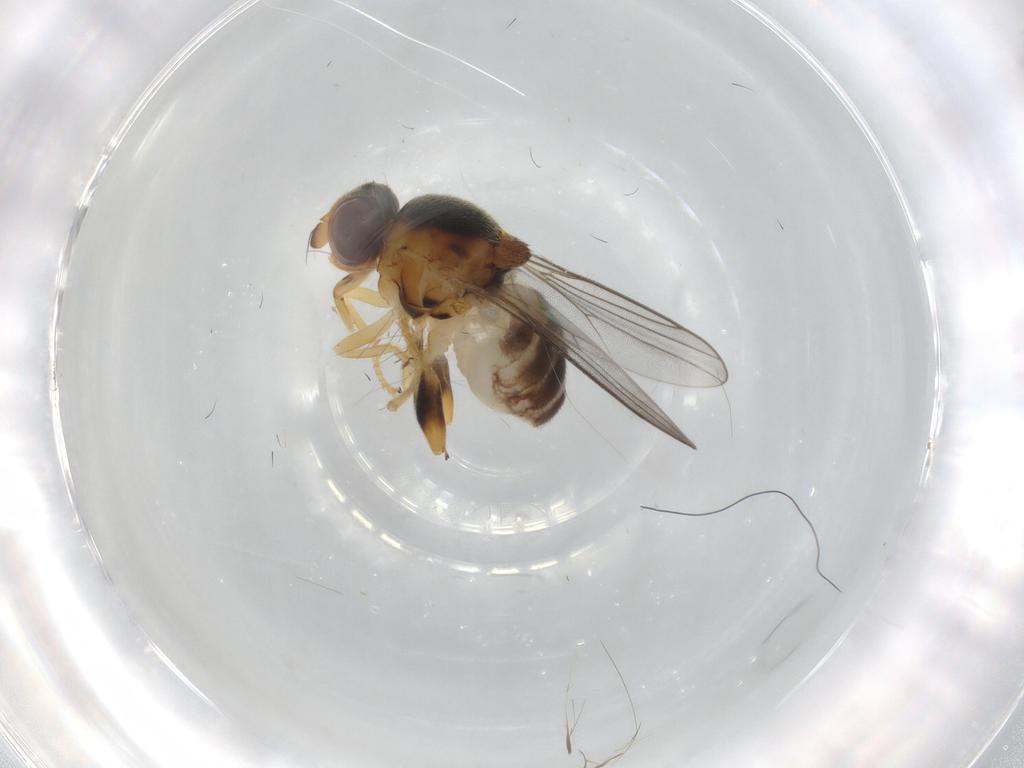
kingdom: Animalia
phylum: Arthropoda
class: Insecta
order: Diptera
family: Chloropidae
